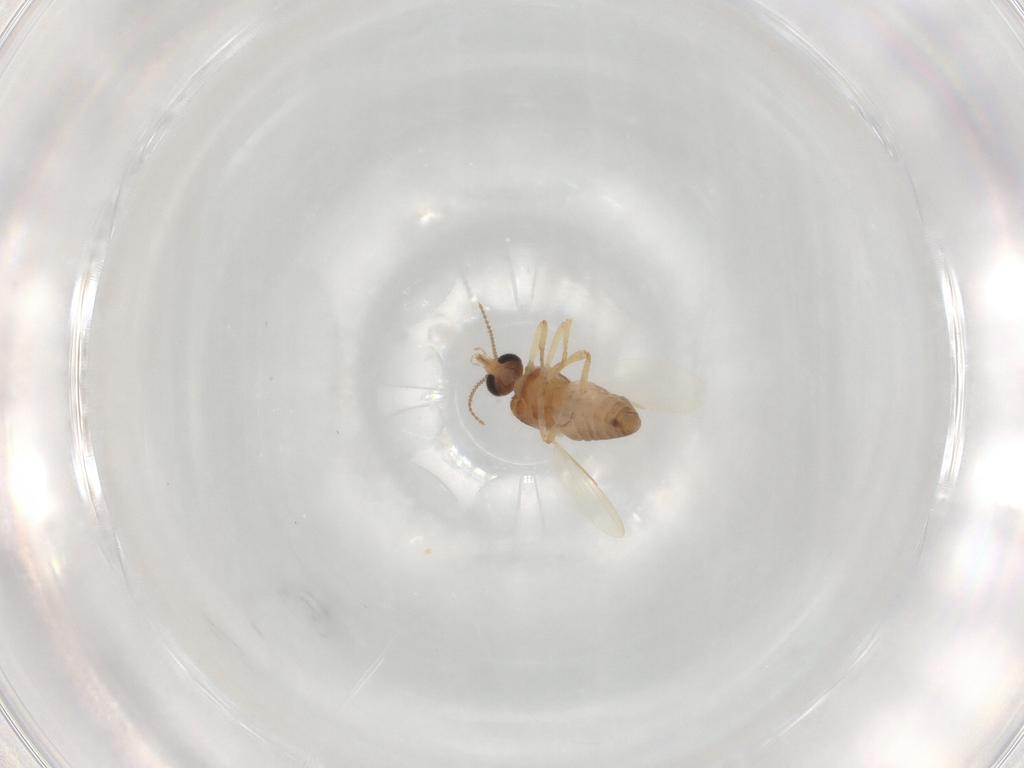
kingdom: Animalia
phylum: Arthropoda
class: Insecta
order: Diptera
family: Ceratopogonidae
